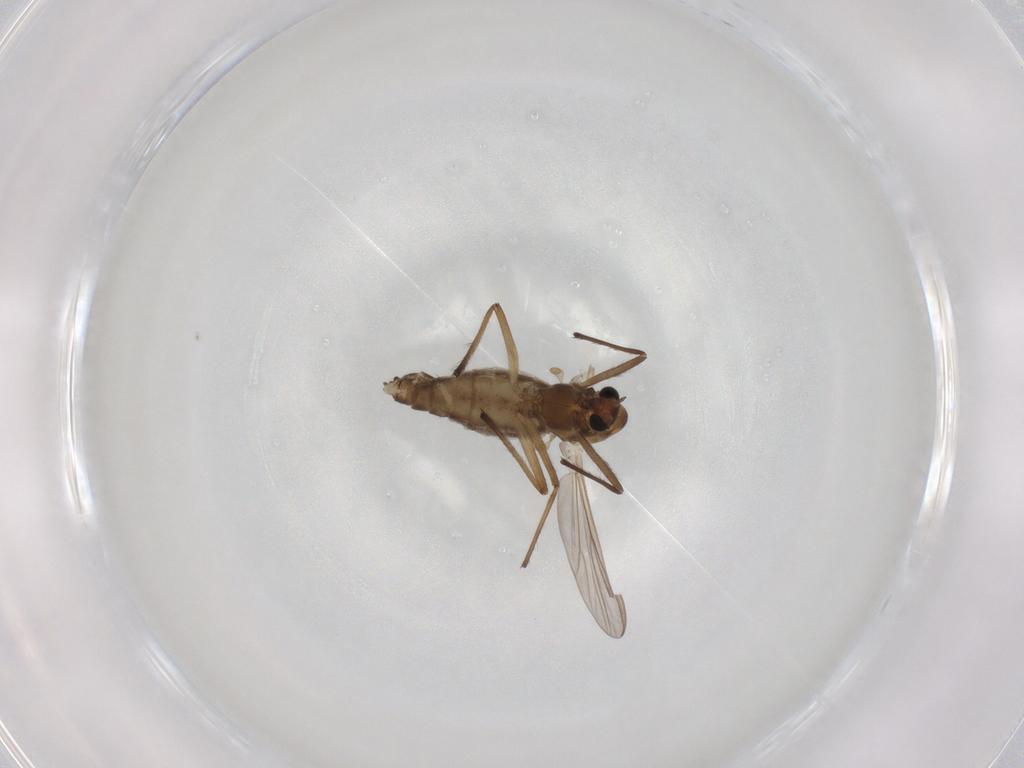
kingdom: Animalia
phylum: Arthropoda
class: Insecta
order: Diptera
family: Chironomidae
